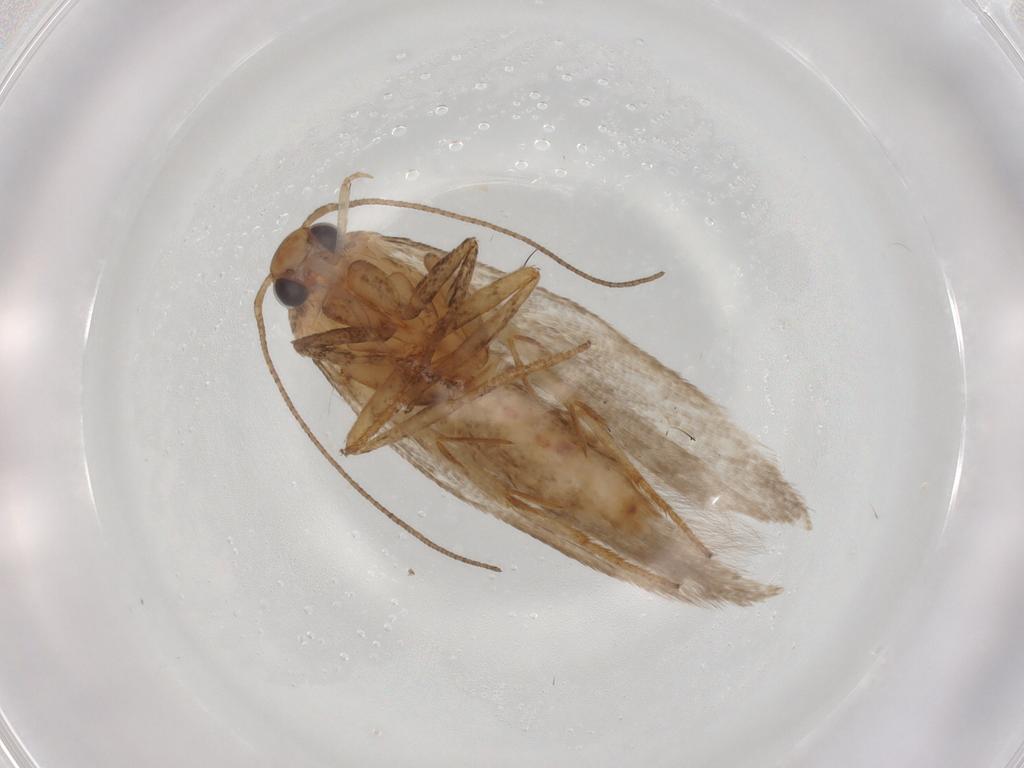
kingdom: Animalia
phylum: Arthropoda
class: Insecta
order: Lepidoptera
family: Gelechiidae
